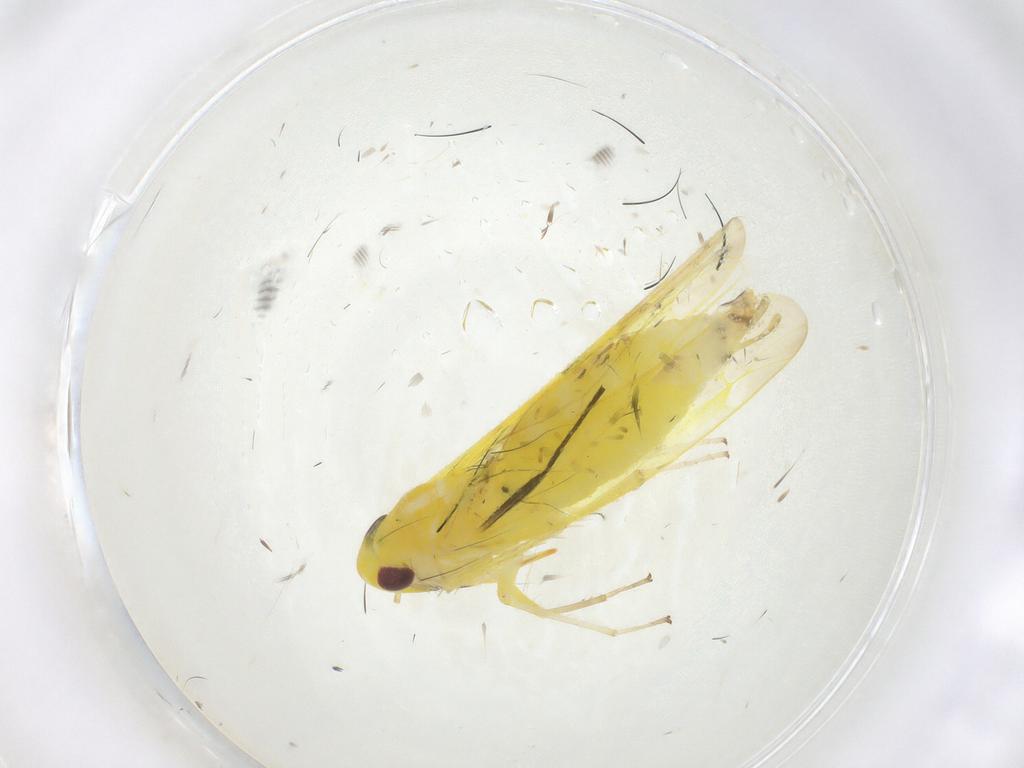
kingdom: Animalia
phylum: Arthropoda
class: Insecta
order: Hemiptera
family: Cicadellidae
